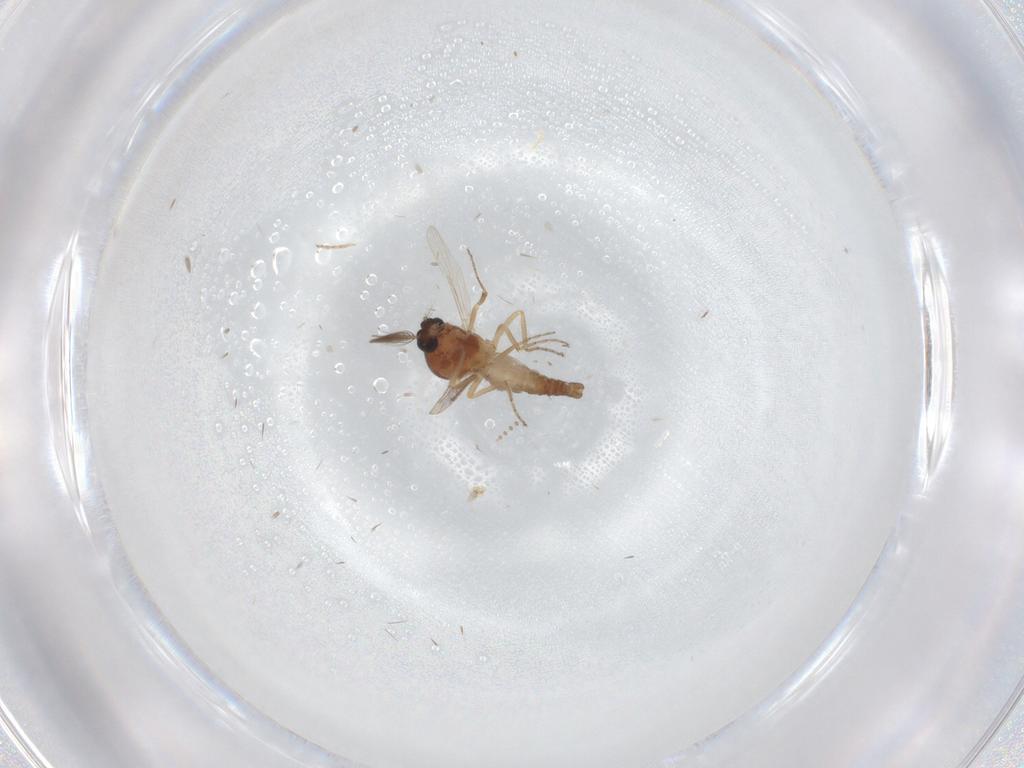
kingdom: Animalia
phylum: Arthropoda
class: Insecta
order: Diptera
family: Ceratopogonidae
